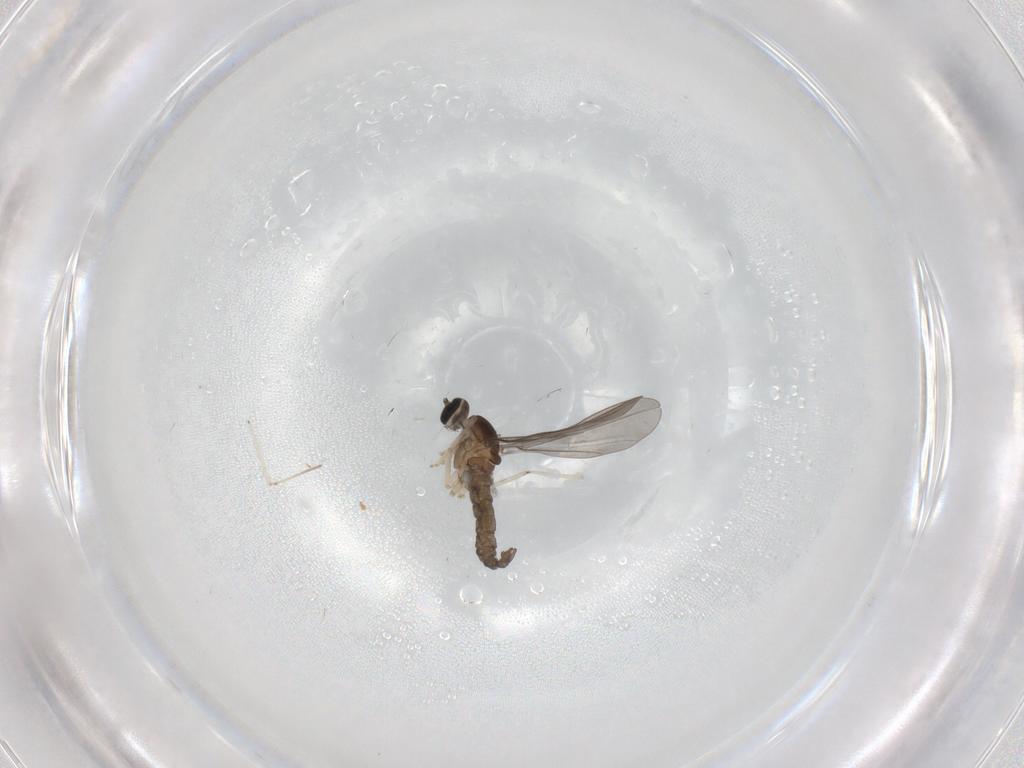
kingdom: Animalia
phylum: Arthropoda
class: Insecta
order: Diptera
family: Cecidomyiidae
